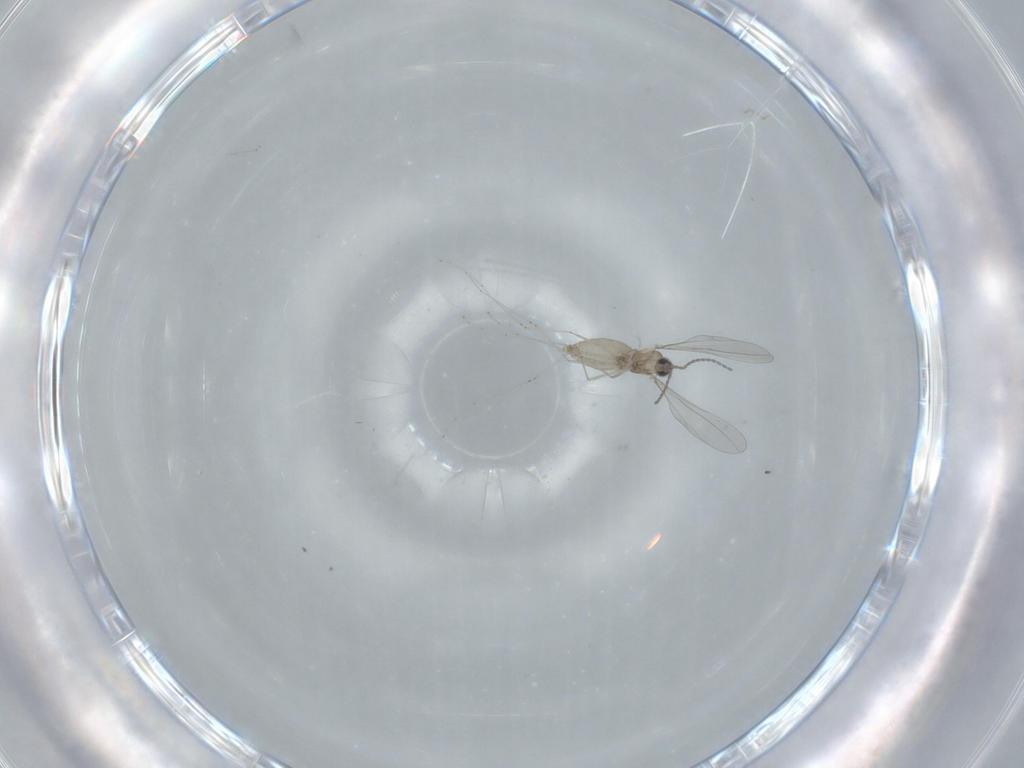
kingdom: Animalia
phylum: Arthropoda
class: Insecta
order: Diptera
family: Cecidomyiidae
